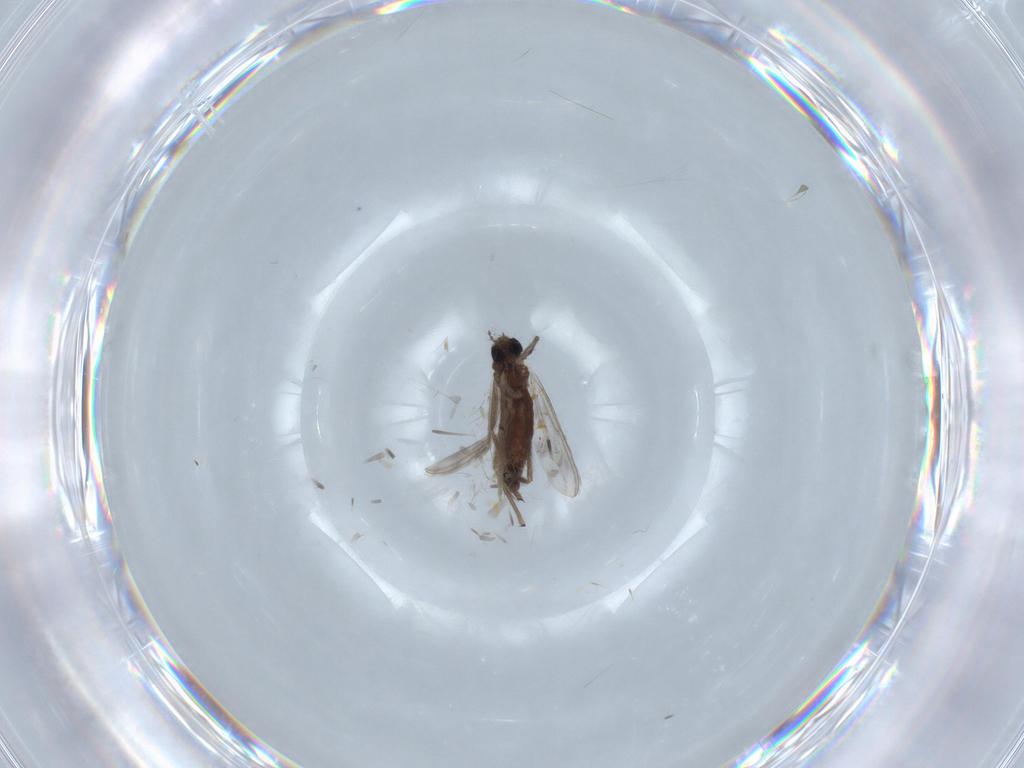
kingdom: Animalia
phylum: Arthropoda
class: Insecta
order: Diptera
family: Chironomidae
